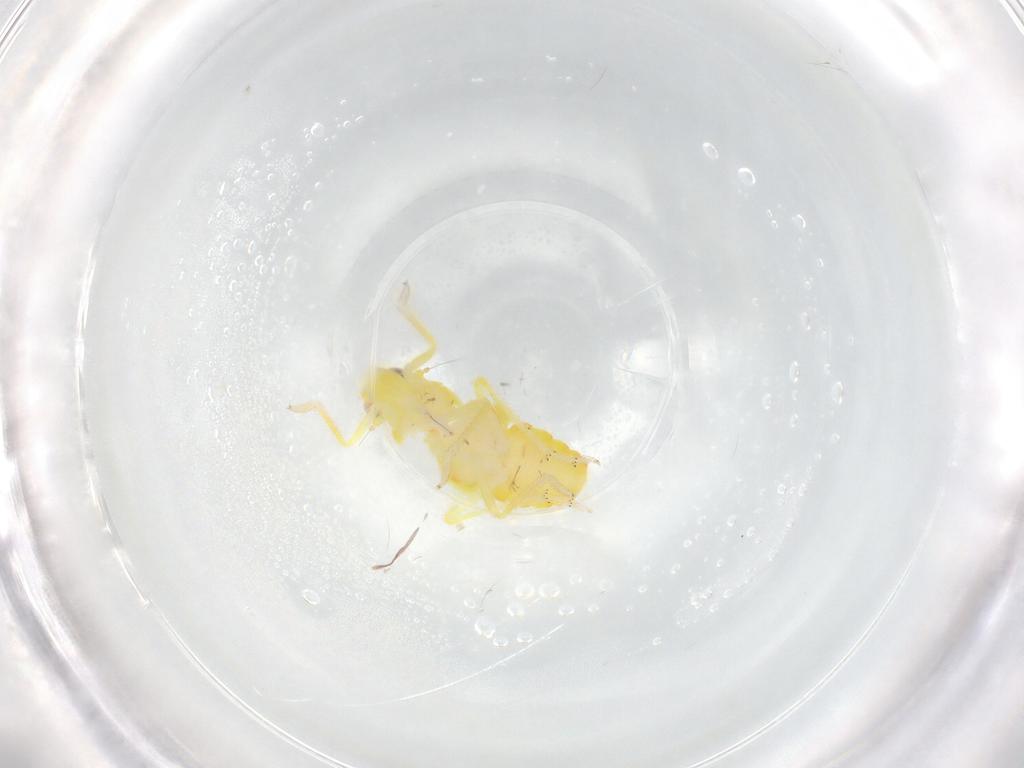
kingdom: Animalia
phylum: Arthropoda
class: Insecta
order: Hemiptera
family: Tropiduchidae
